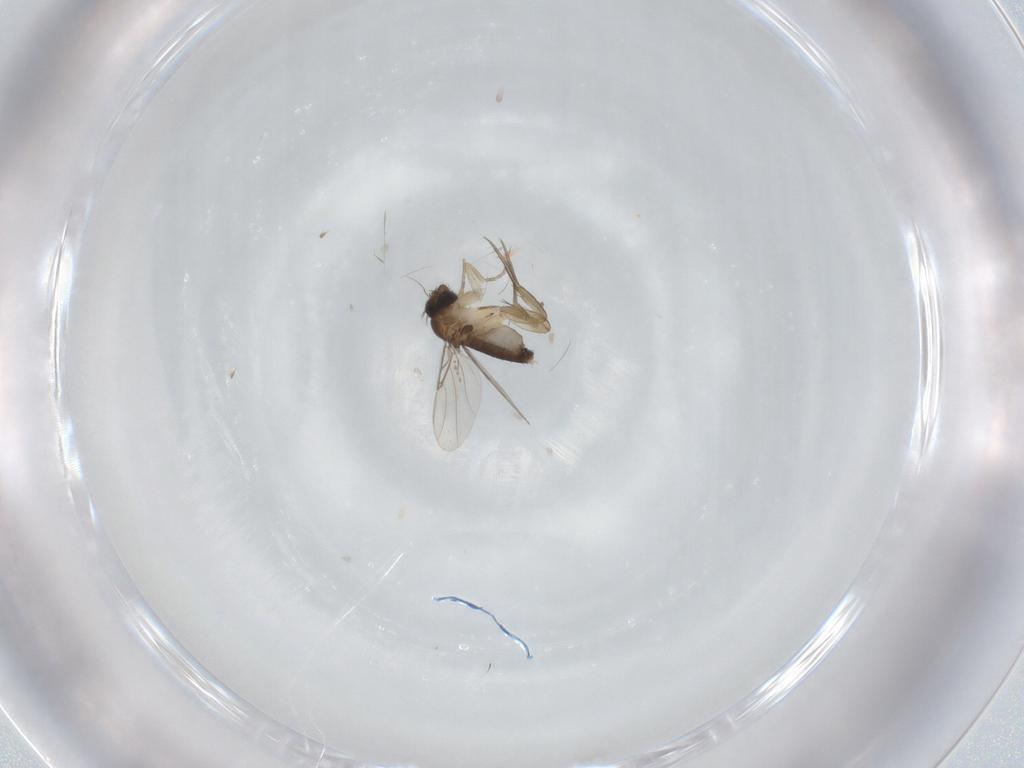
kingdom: Animalia
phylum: Arthropoda
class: Insecta
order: Diptera
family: Phoridae
